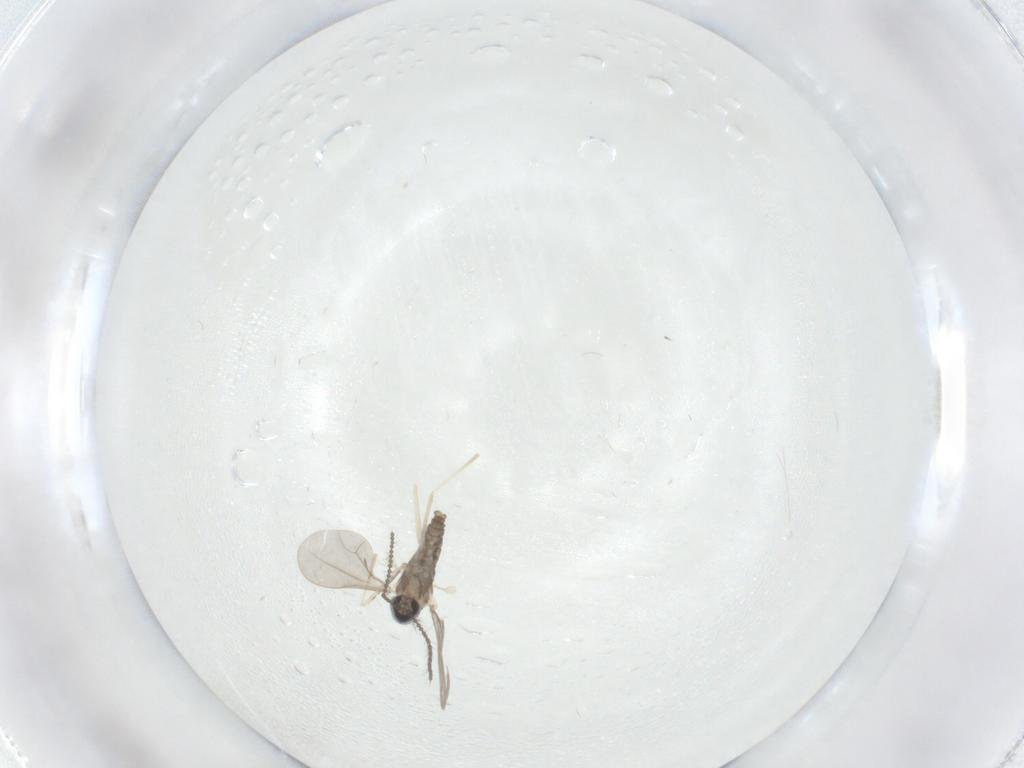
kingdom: Animalia
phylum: Arthropoda
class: Insecta
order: Diptera
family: Cecidomyiidae
